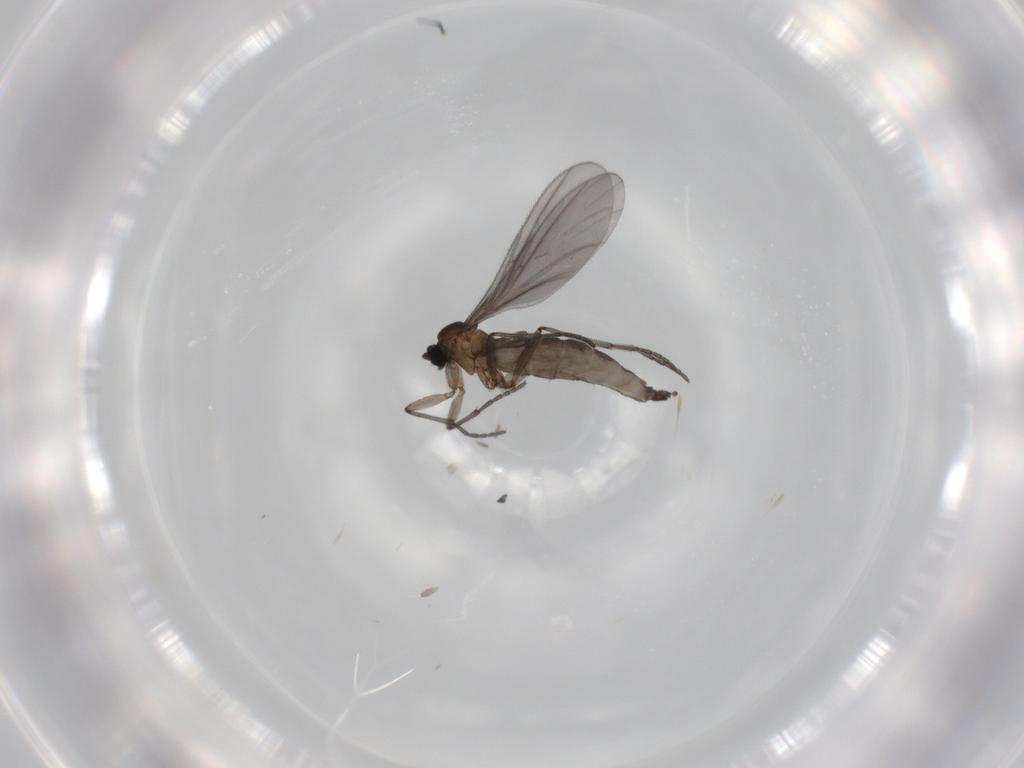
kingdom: Animalia
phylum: Arthropoda
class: Insecta
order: Diptera
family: Sciaridae
